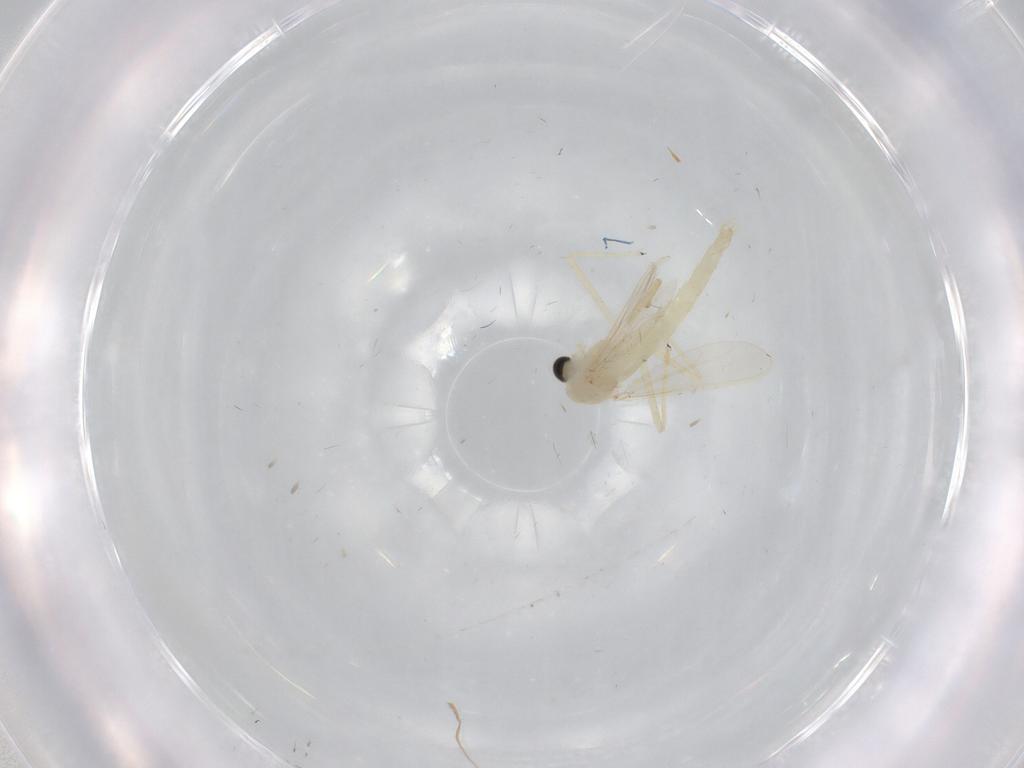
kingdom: Animalia
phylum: Arthropoda
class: Insecta
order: Diptera
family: Chironomidae
